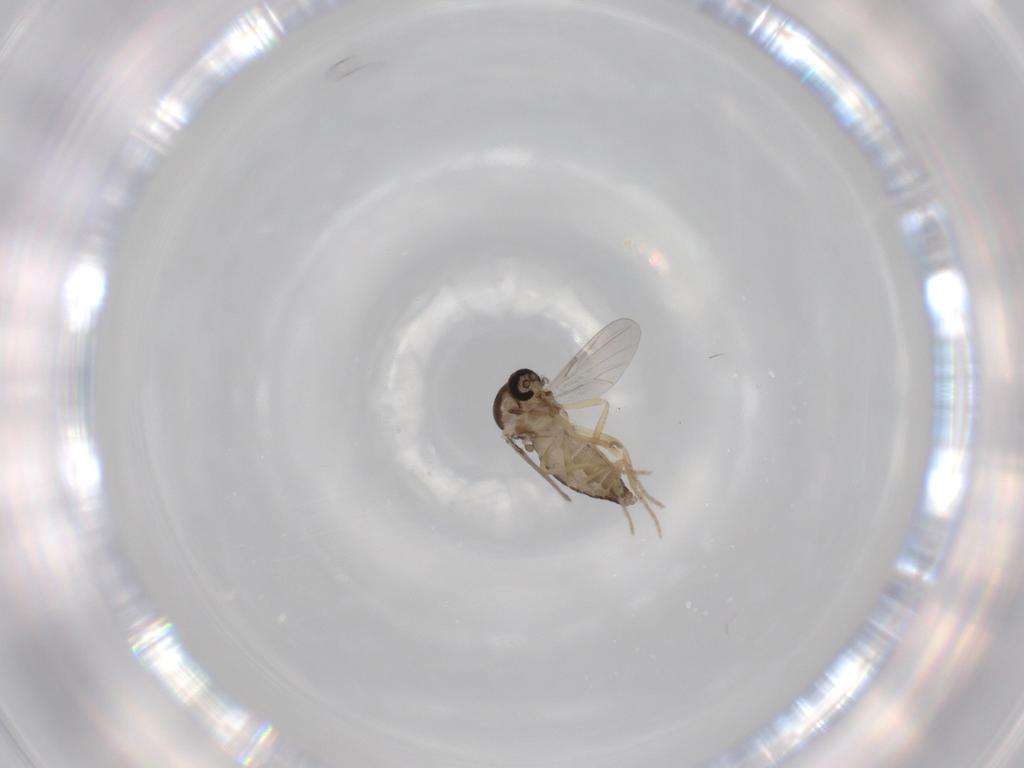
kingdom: Animalia
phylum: Arthropoda
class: Insecta
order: Diptera
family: Ceratopogonidae
